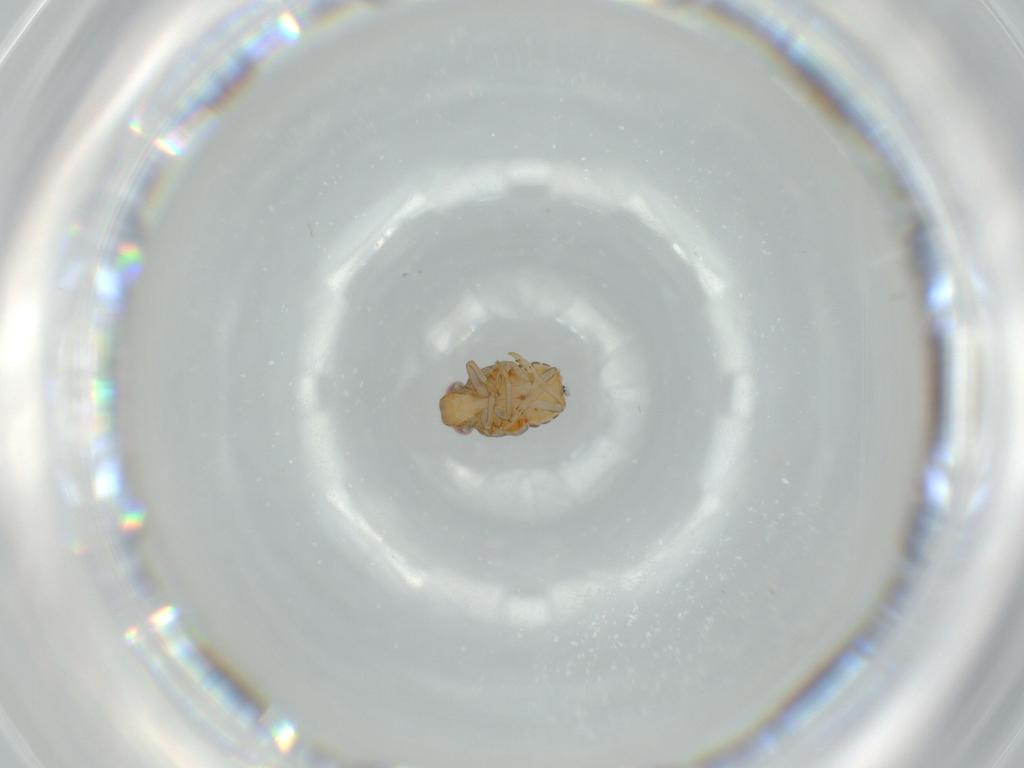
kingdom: Animalia
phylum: Arthropoda
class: Insecta
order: Hemiptera
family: Issidae
